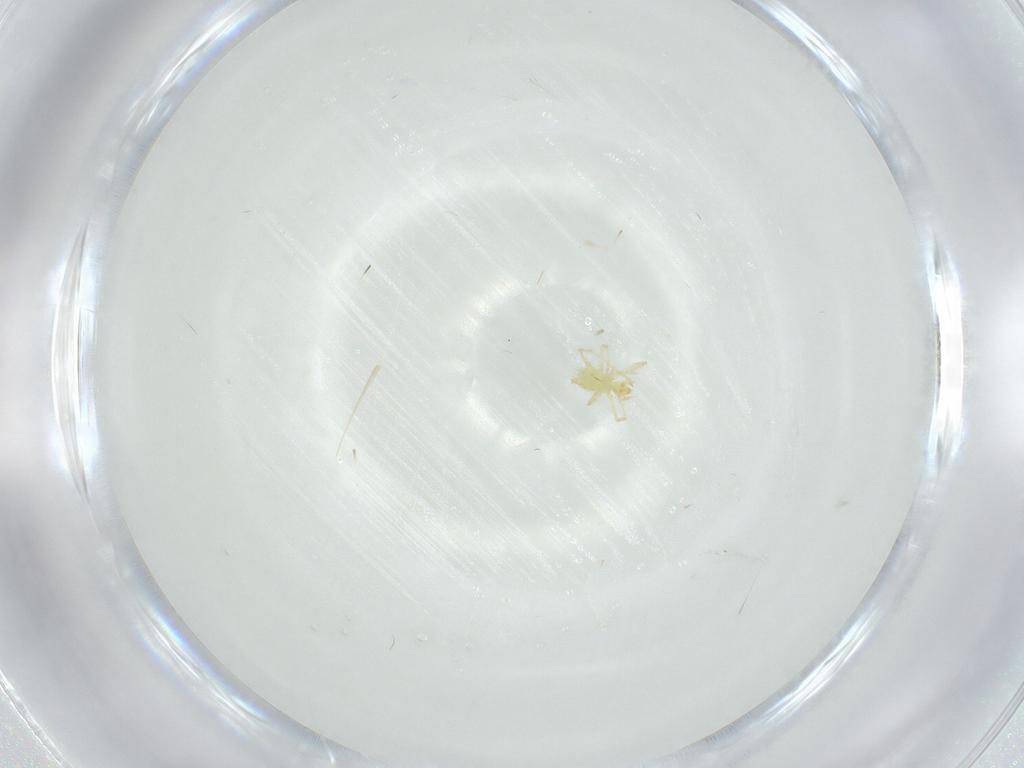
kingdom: Animalia
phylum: Arthropoda
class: Arachnida
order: Trombidiformes
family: Erythraeidae
